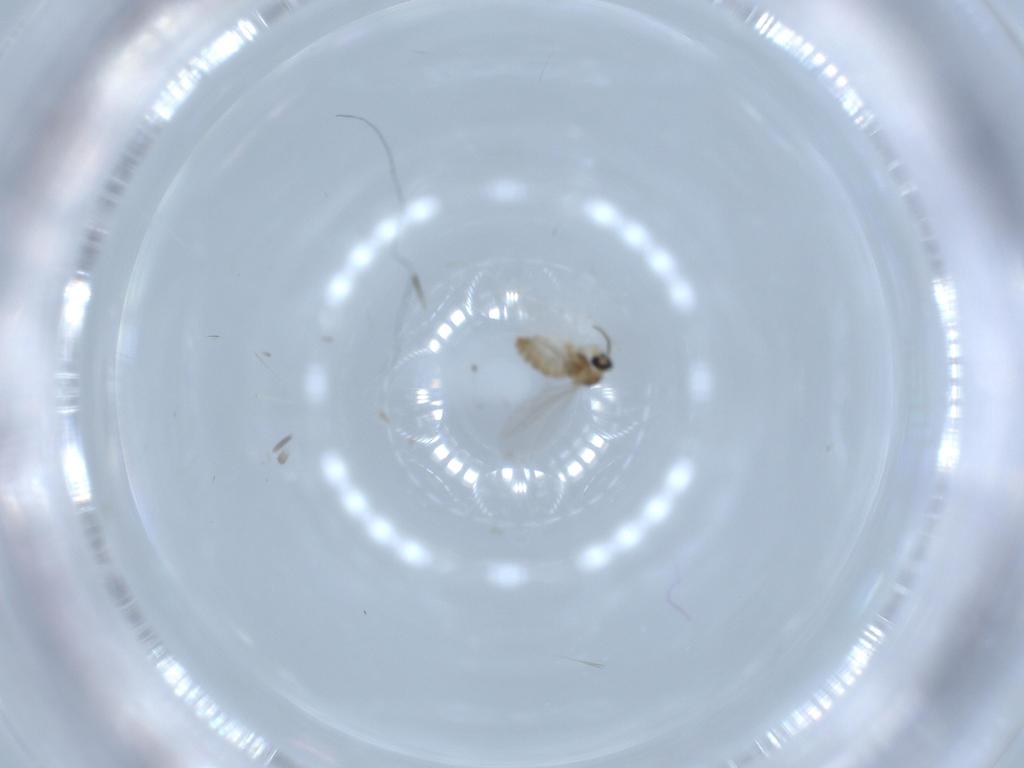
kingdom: Animalia
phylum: Arthropoda
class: Insecta
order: Diptera
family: Cecidomyiidae
